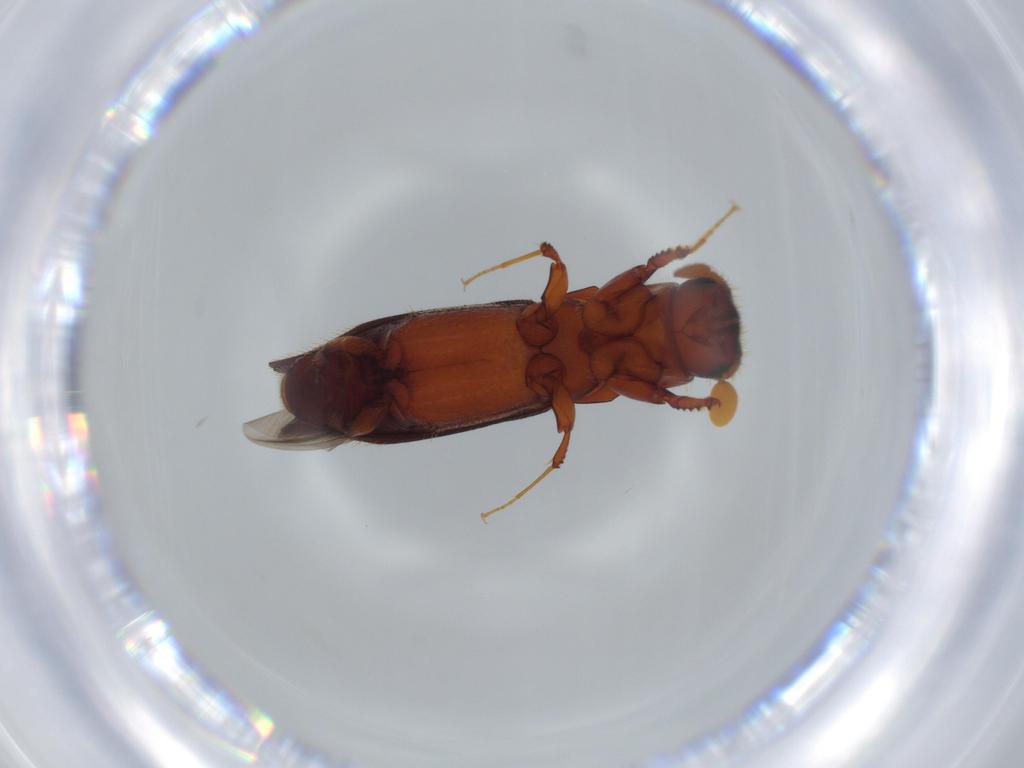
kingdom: Animalia
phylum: Arthropoda
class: Insecta
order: Coleoptera
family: Curculionidae
